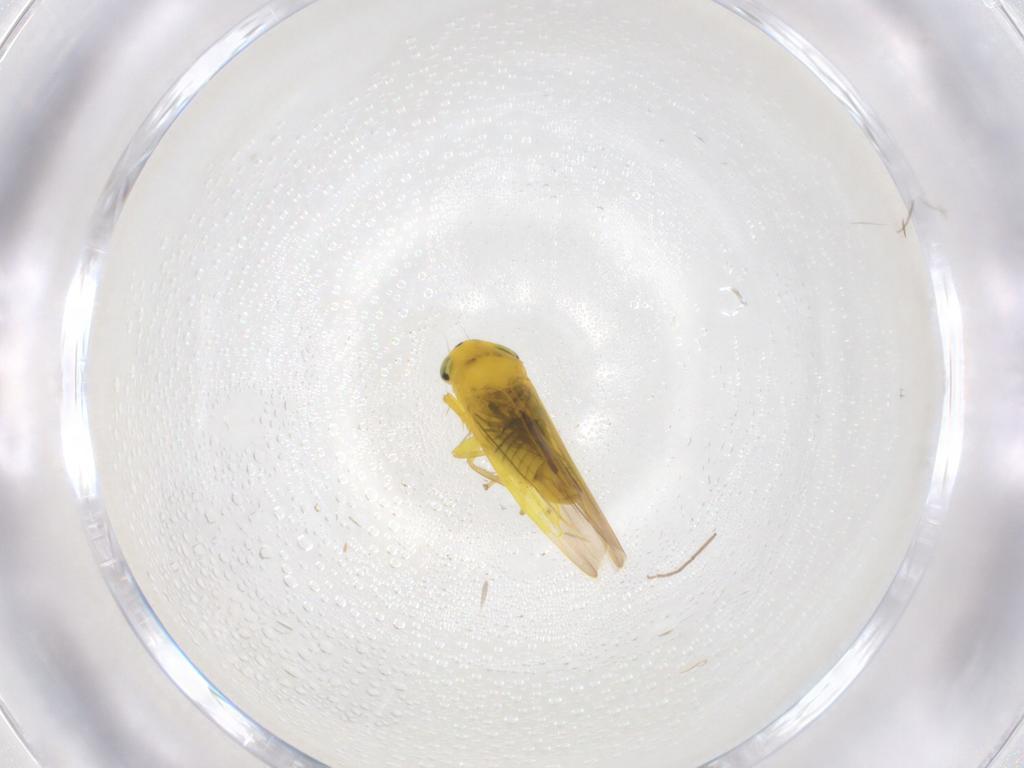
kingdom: Animalia
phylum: Arthropoda
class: Insecta
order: Hemiptera
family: Cicadellidae
